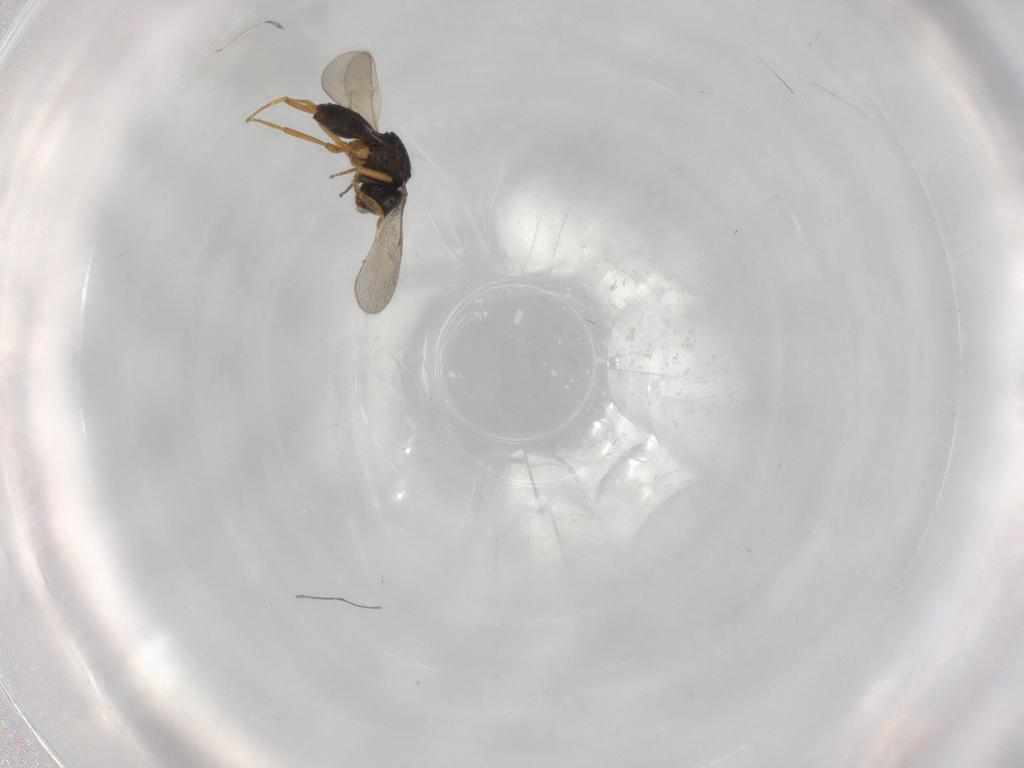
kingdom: Animalia
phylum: Arthropoda
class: Insecta
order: Hymenoptera
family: Scelionidae
